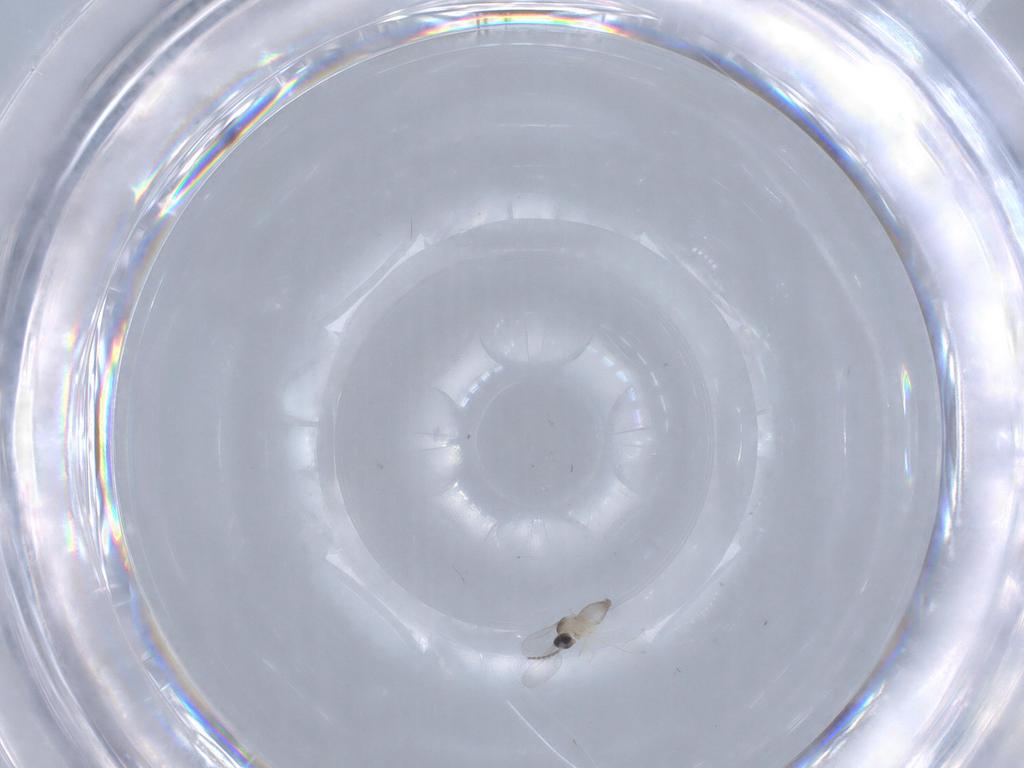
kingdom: Animalia
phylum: Arthropoda
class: Insecta
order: Diptera
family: Cecidomyiidae
